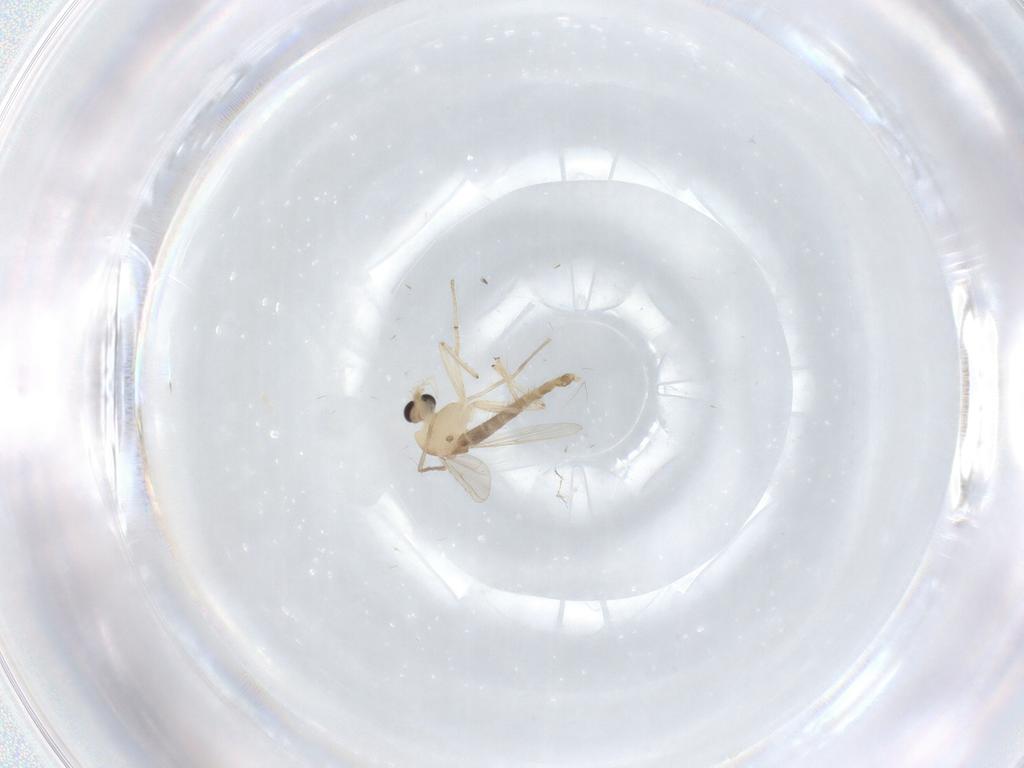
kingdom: Animalia
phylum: Arthropoda
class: Insecta
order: Diptera
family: Chironomidae
